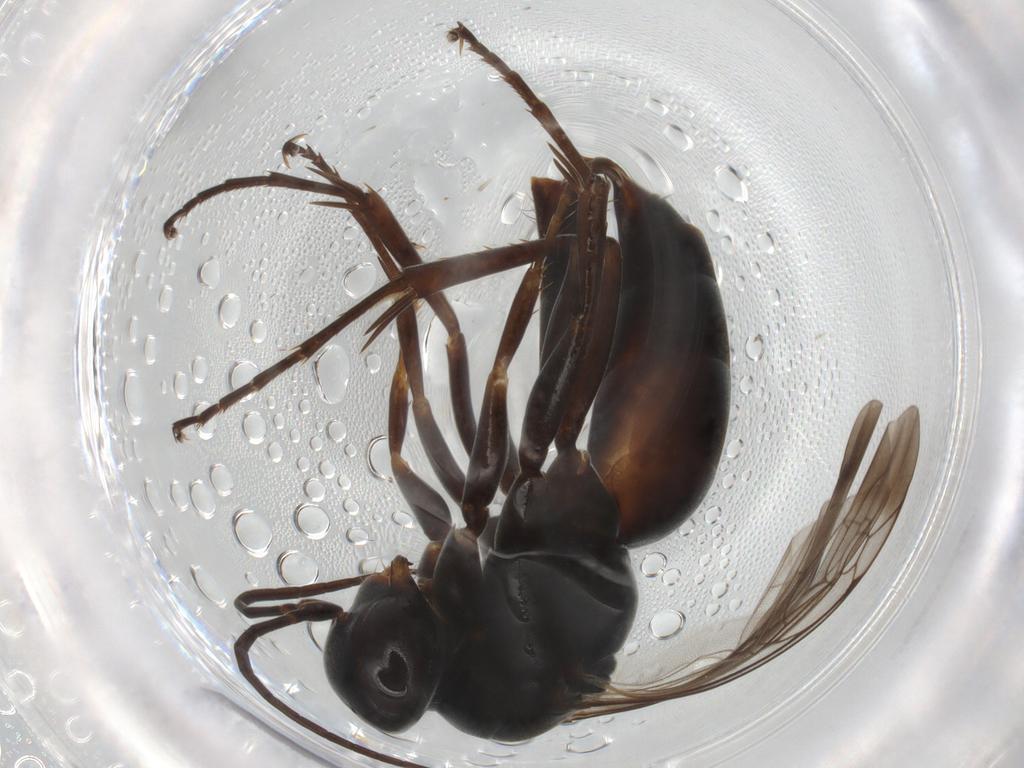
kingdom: Animalia
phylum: Arthropoda
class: Insecta
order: Hymenoptera
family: Pompilidae
